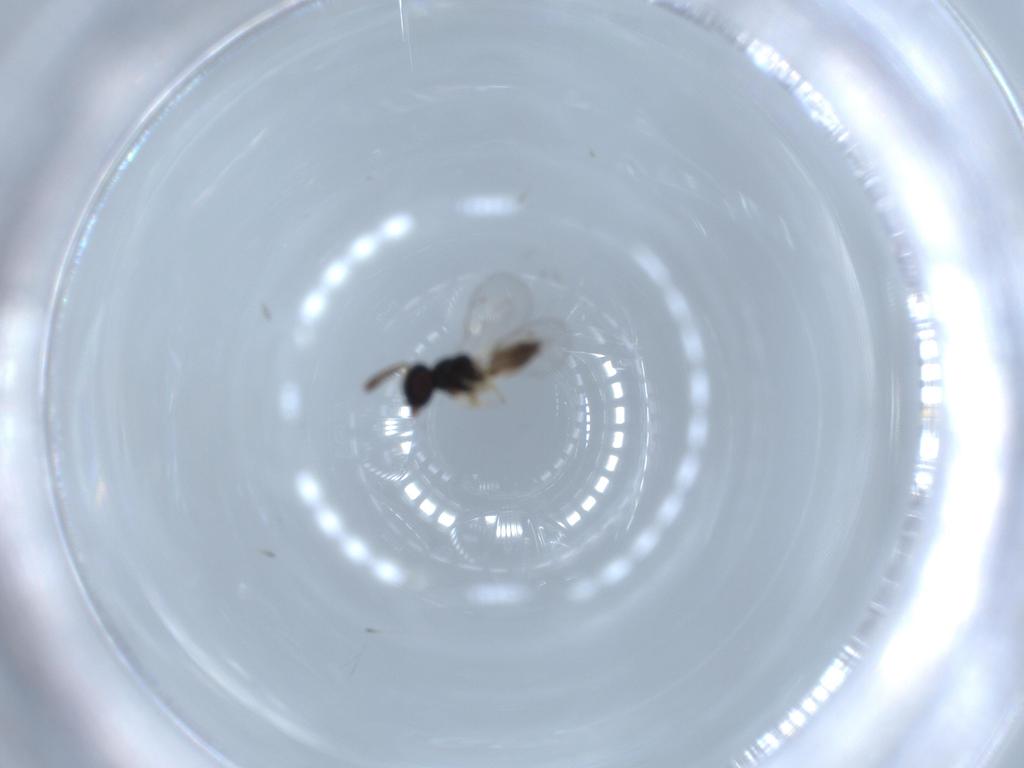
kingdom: Animalia
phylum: Arthropoda
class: Insecta
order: Hymenoptera
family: Pteromalidae
